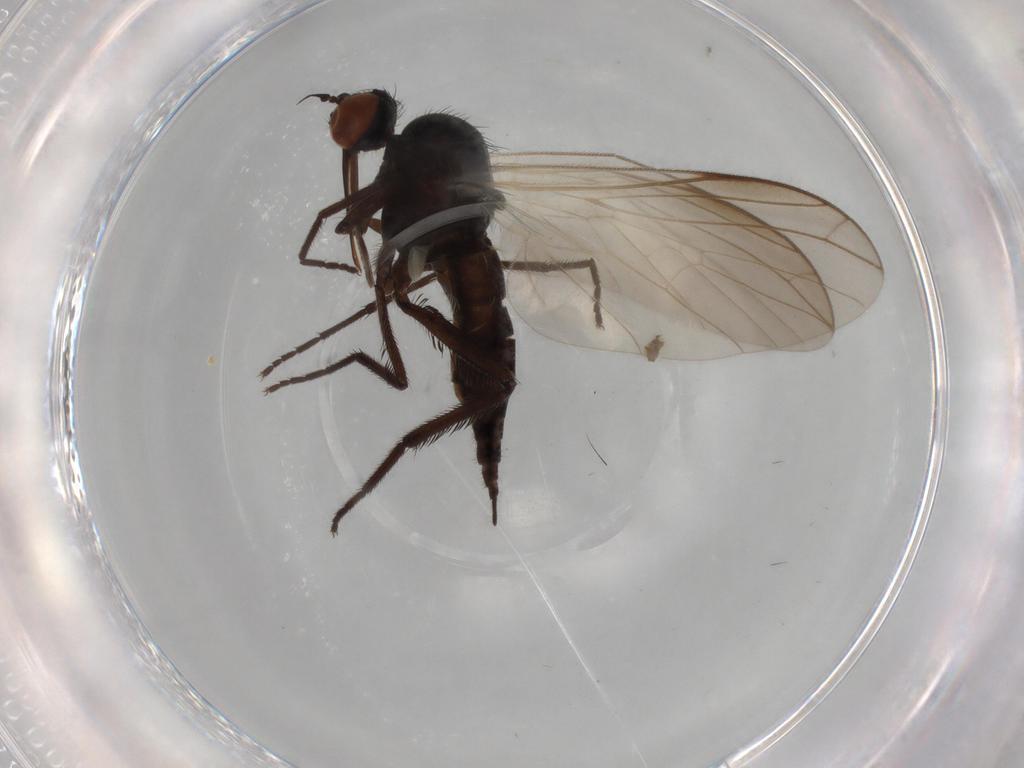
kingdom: Animalia
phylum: Arthropoda
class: Insecta
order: Diptera
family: Empididae
